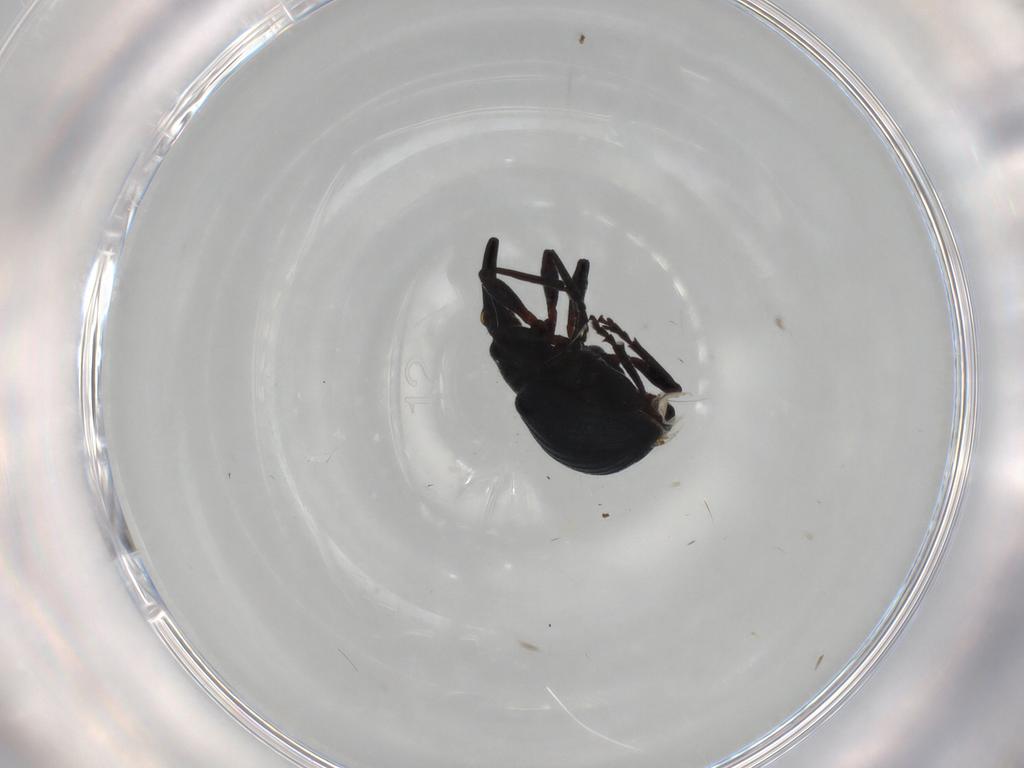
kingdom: Animalia
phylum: Arthropoda
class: Insecta
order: Coleoptera
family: Brentidae
